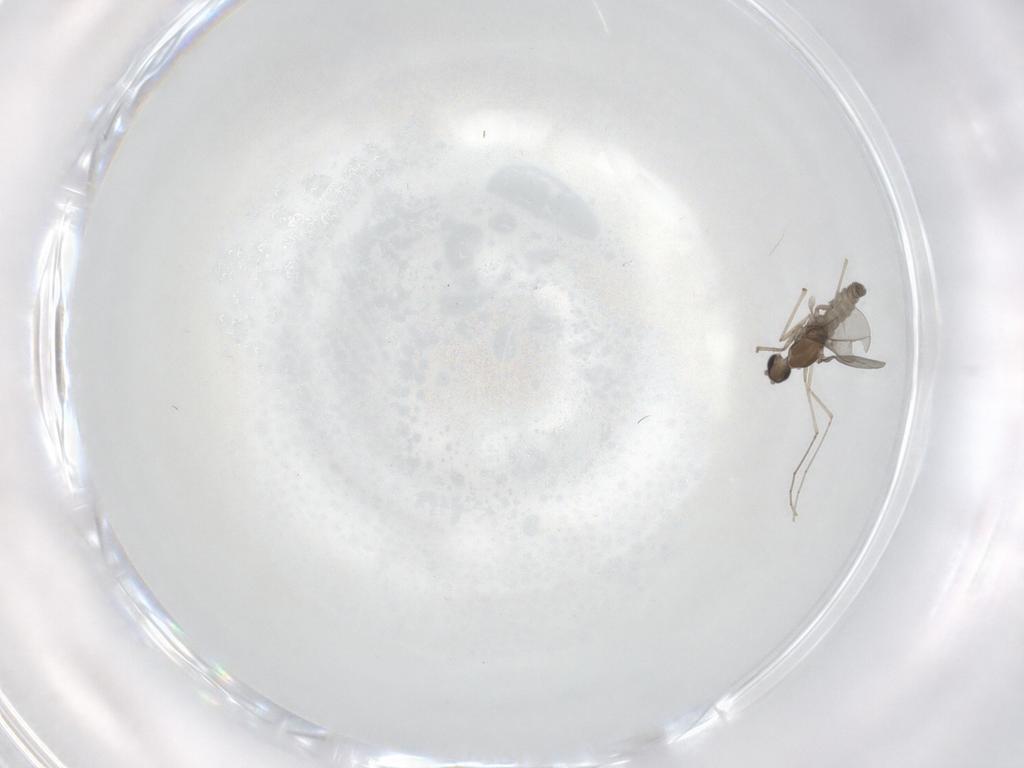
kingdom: Animalia
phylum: Arthropoda
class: Insecta
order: Diptera
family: Cecidomyiidae
